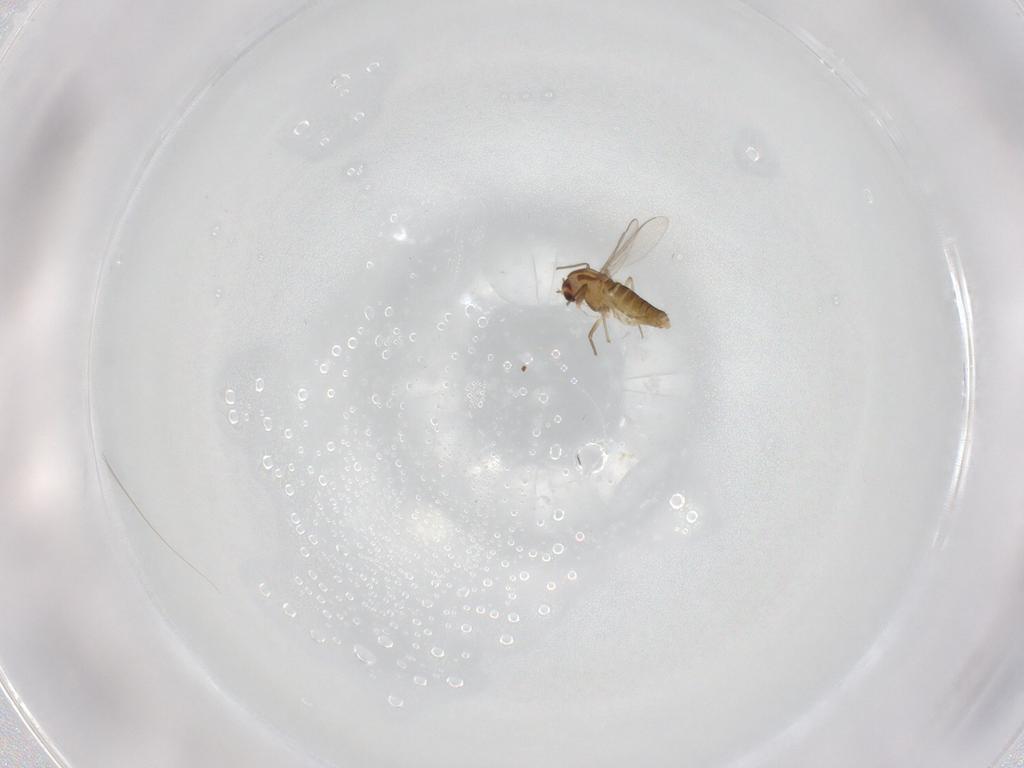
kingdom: Animalia
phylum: Arthropoda
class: Insecta
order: Diptera
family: Chironomidae
